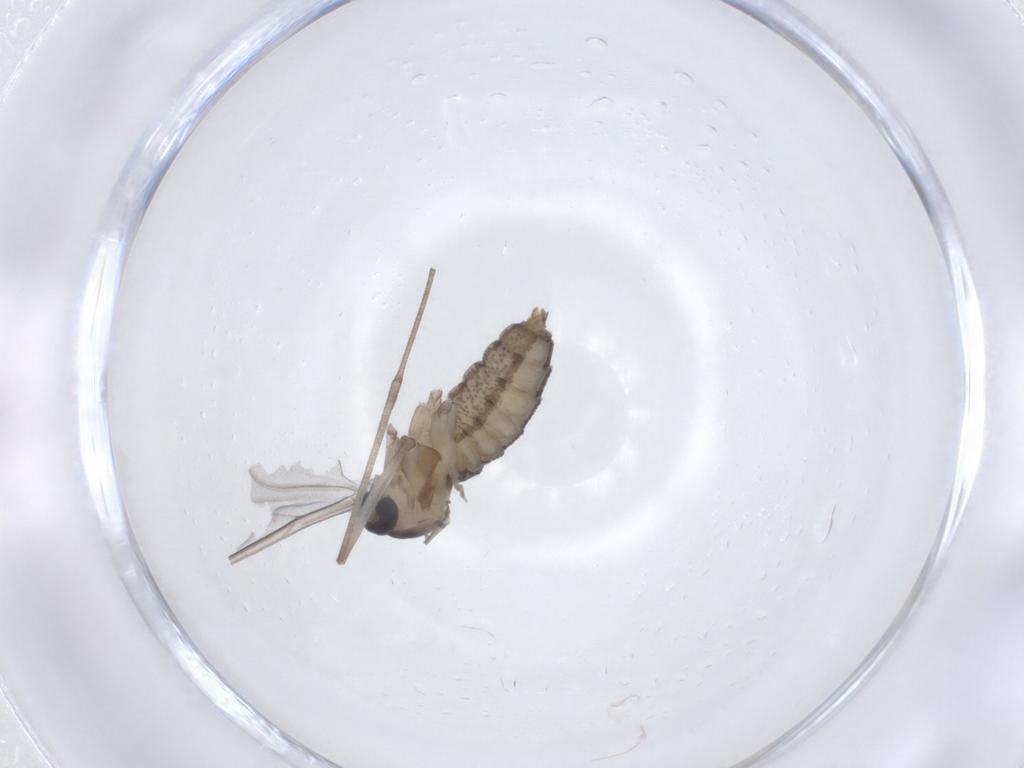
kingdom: Animalia
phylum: Arthropoda
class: Insecta
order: Diptera
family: Cecidomyiidae
